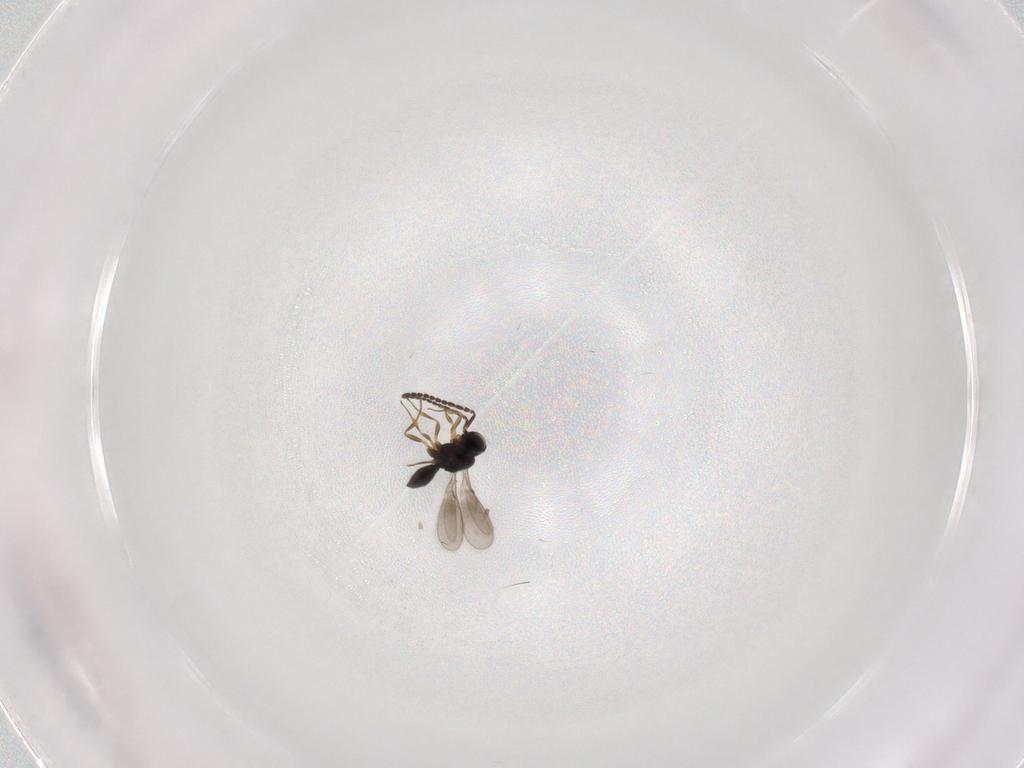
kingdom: Animalia
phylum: Arthropoda
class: Insecta
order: Hymenoptera
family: Scelionidae
